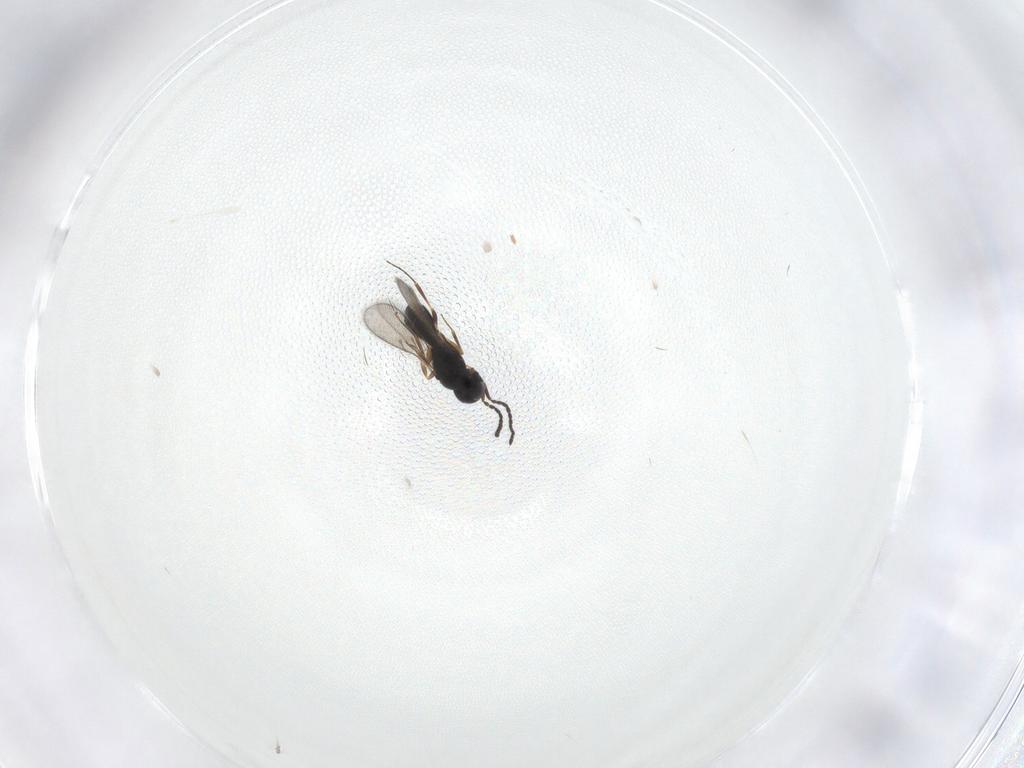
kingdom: Animalia
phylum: Arthropoda
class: Insecta
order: Hymenoptera
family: Scelionidae
